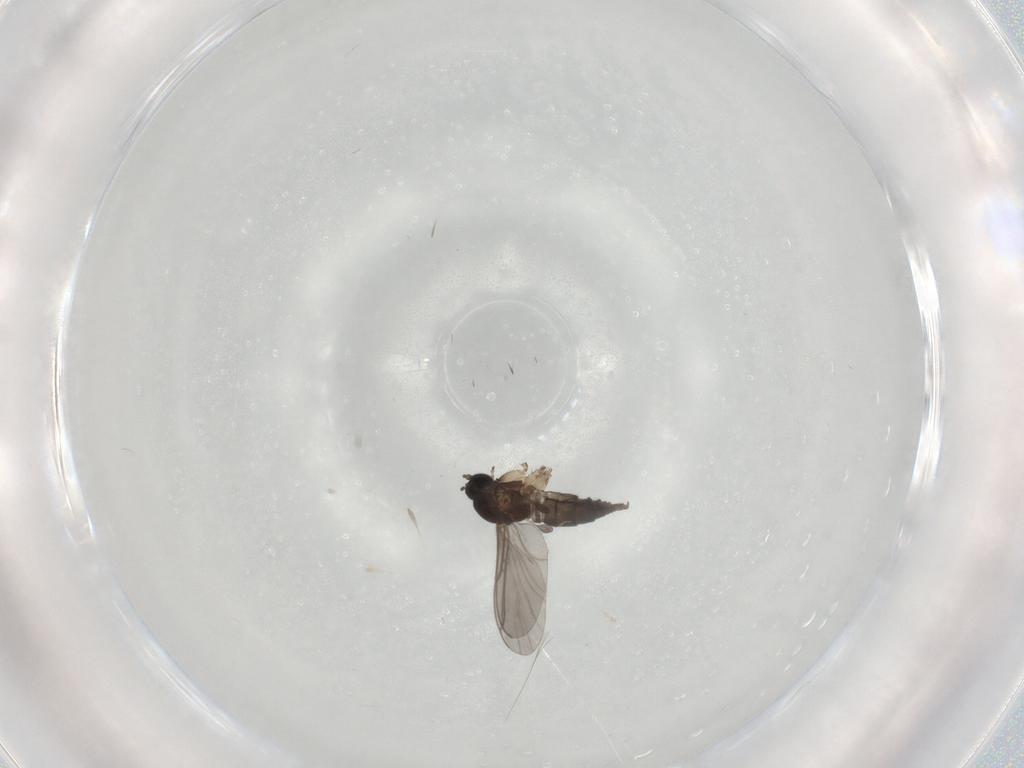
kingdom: Animalia
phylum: Arthropoda
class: Insecta
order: Diptera
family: Sciaridae
